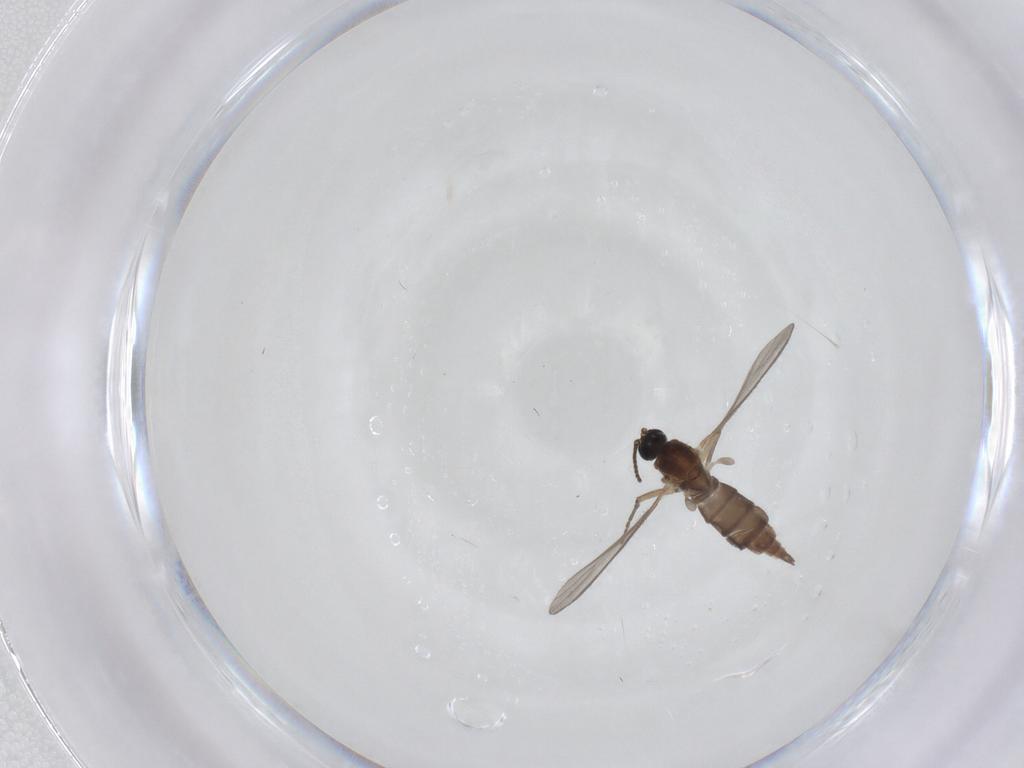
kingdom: Animalia
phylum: Arthropoda
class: Insecta
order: Diptera
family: Sciaridae
